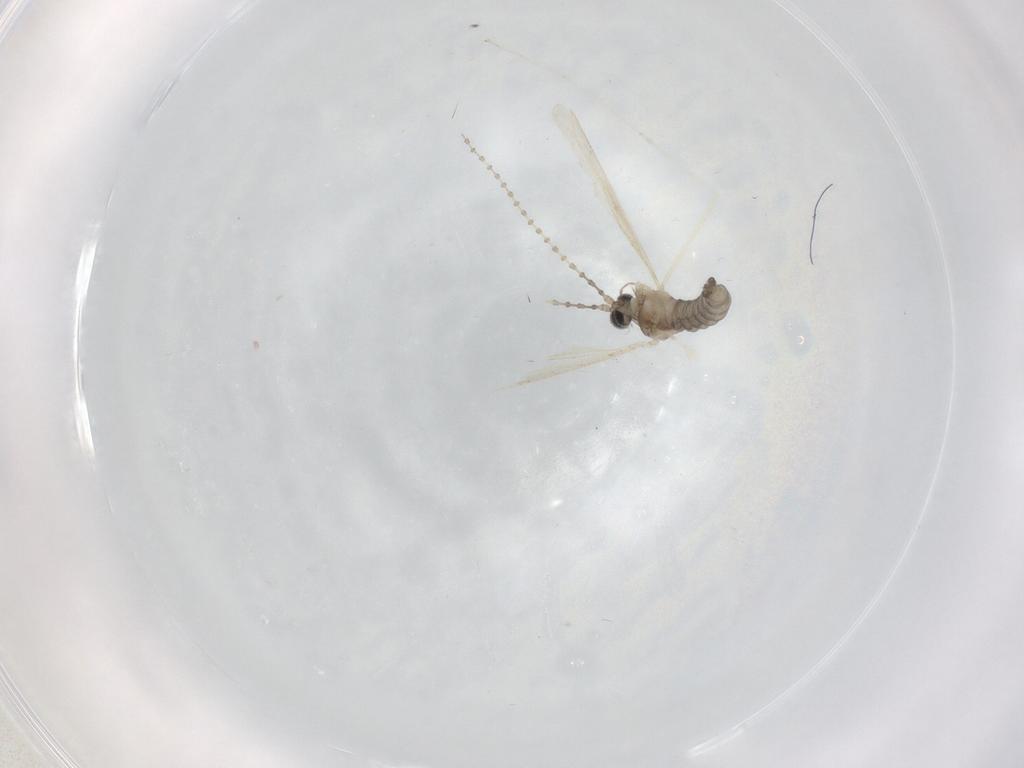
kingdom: Animalia
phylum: Arthropoda
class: Insecta
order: Diptera
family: Cecidomyiidae
